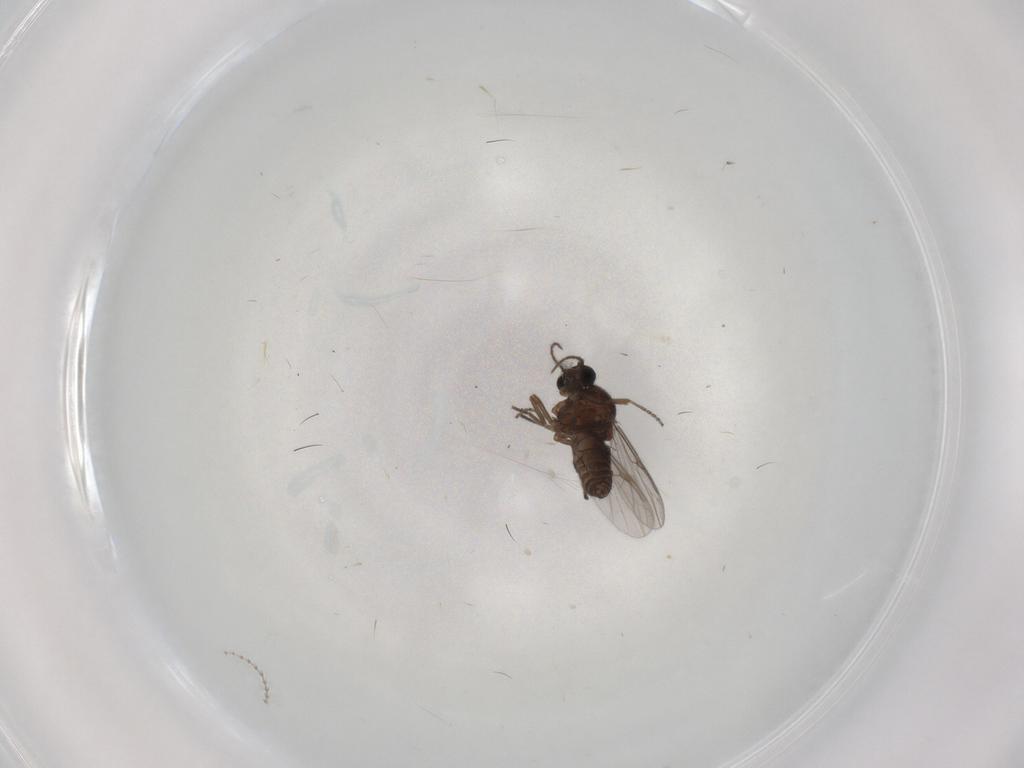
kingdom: Animalia
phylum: Arthropoda
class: Insecta
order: Diptera
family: Ceratopogonidae
